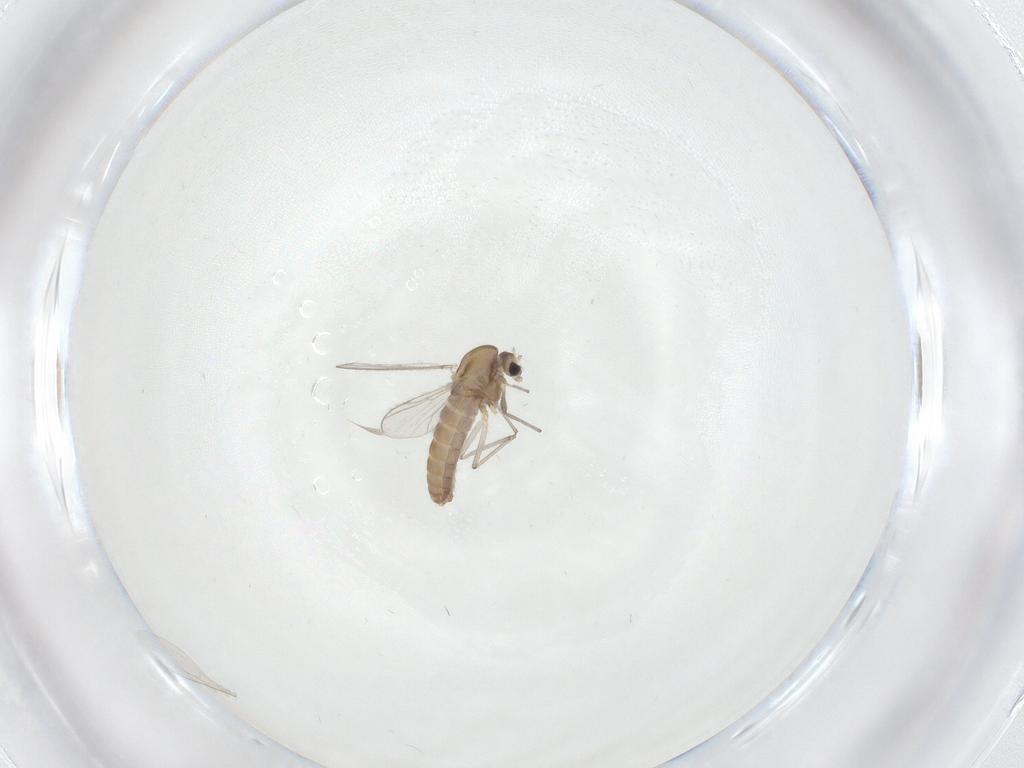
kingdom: Animalia
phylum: Arthropoda
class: Insecta
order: Diptera
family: Chironomidae
